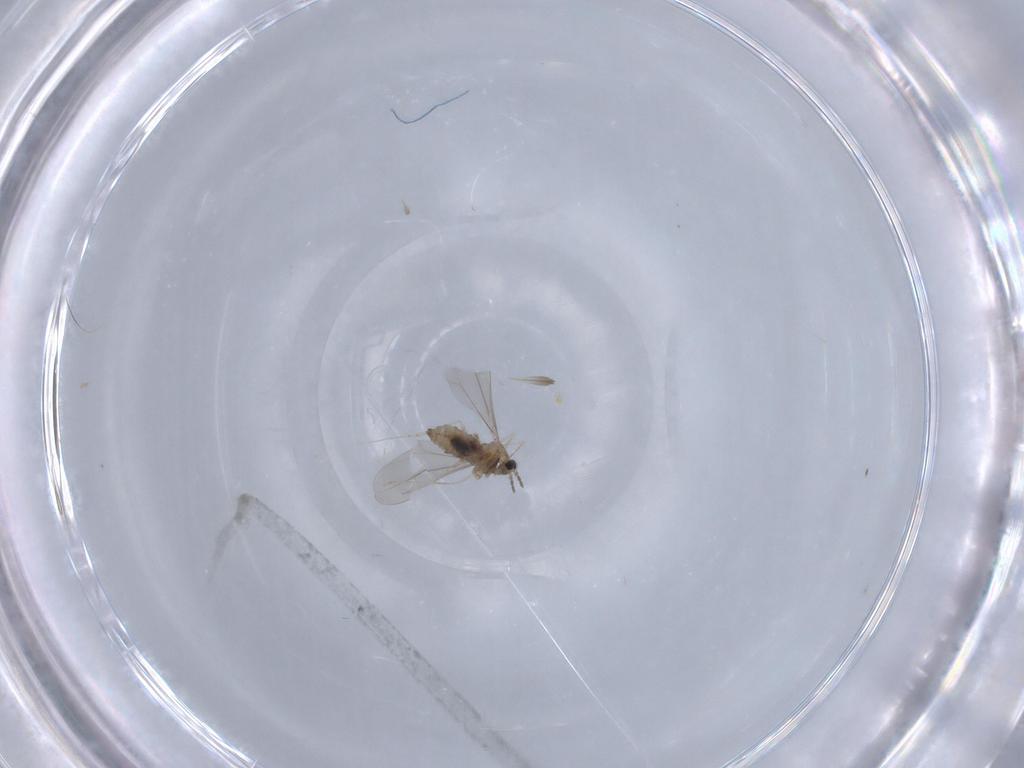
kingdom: Animalia
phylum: Arthropoda
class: Insecta
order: Diptera
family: Cecidomyiidae
